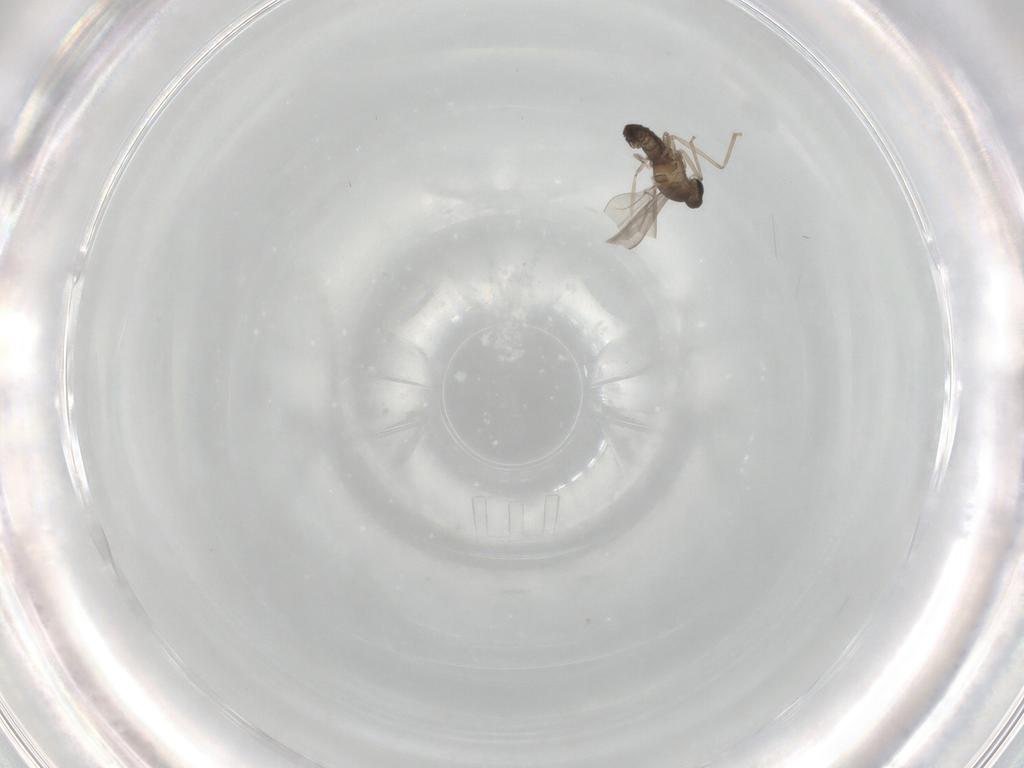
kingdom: Animalia
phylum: Arthropoda
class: Insecta
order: Diptera
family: Cecidomyiidae
